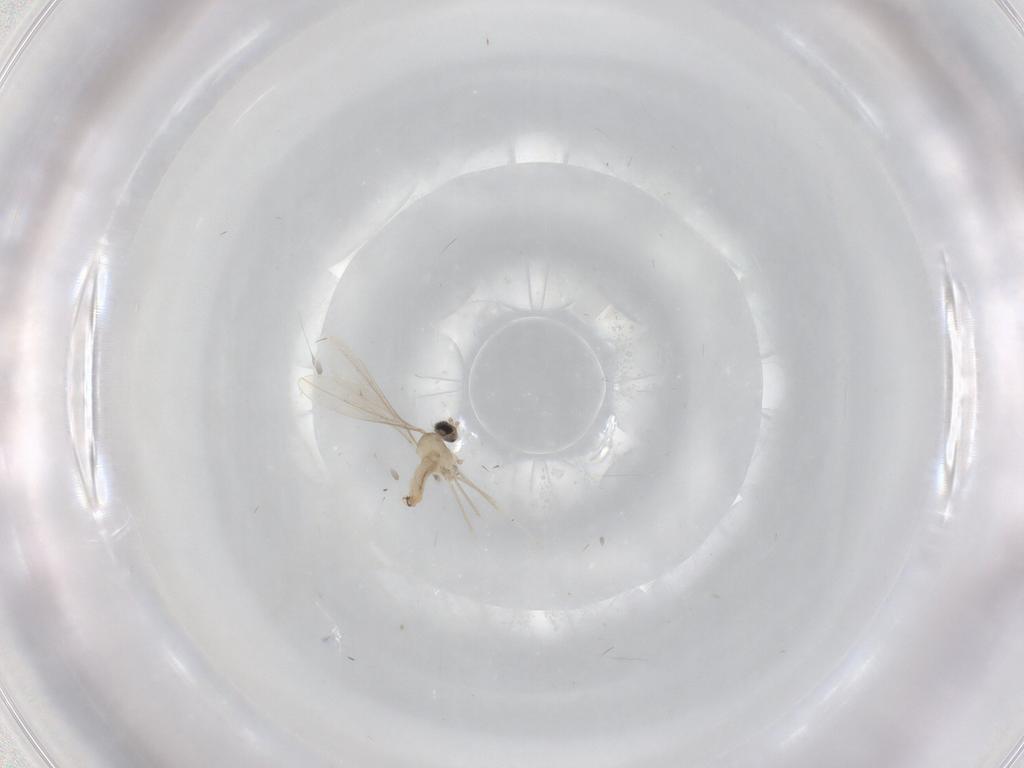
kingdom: Animalia
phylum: Arthropoda
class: Insecta
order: Diptera
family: Cecidomyiidae
